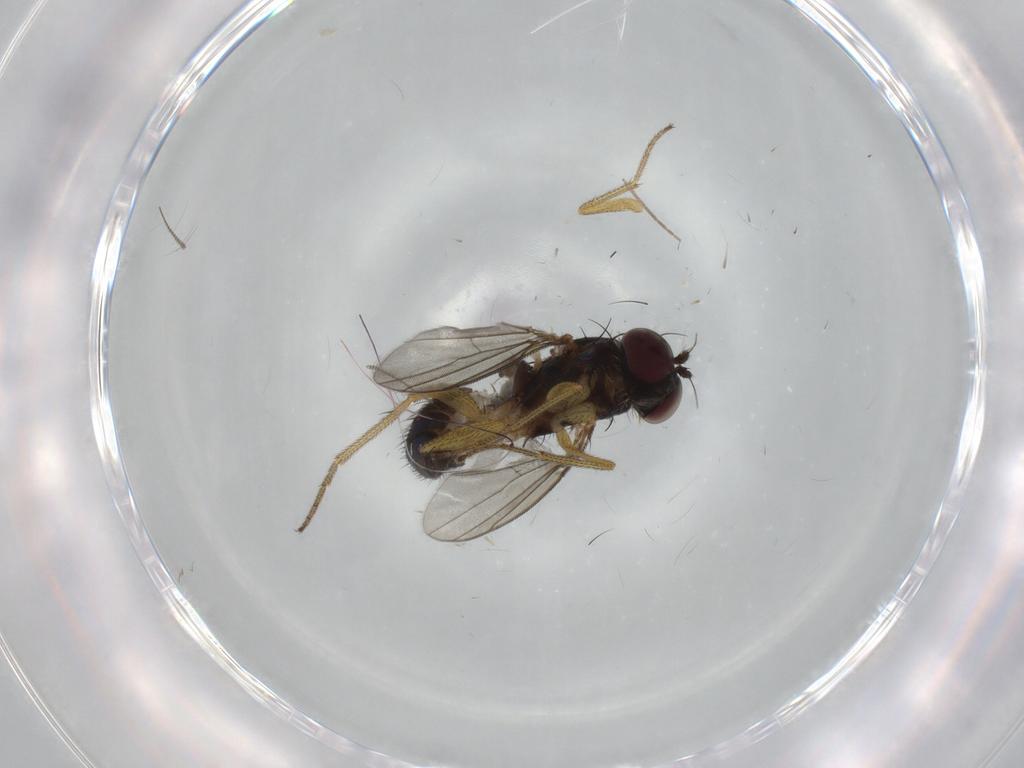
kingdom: Animalia
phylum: Arthropoda
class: Insecta
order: Diptera
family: Dolichopodidae
